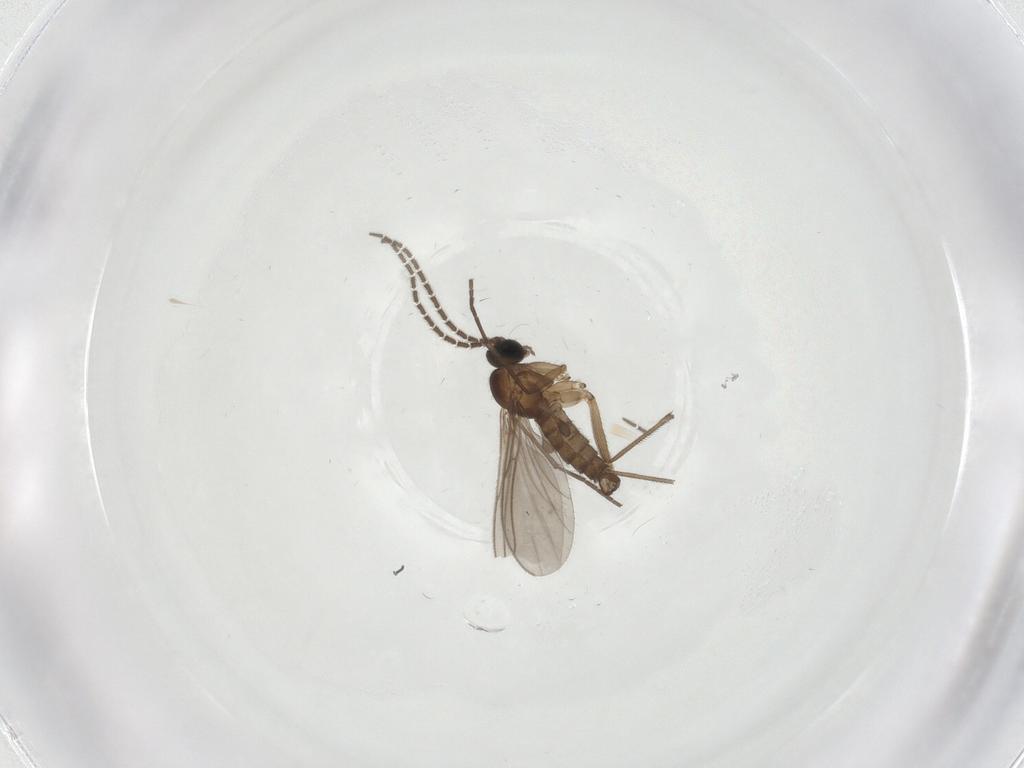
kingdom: Animalia
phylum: Arthropoda
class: Insecta
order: Diptera
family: Sciaridae
